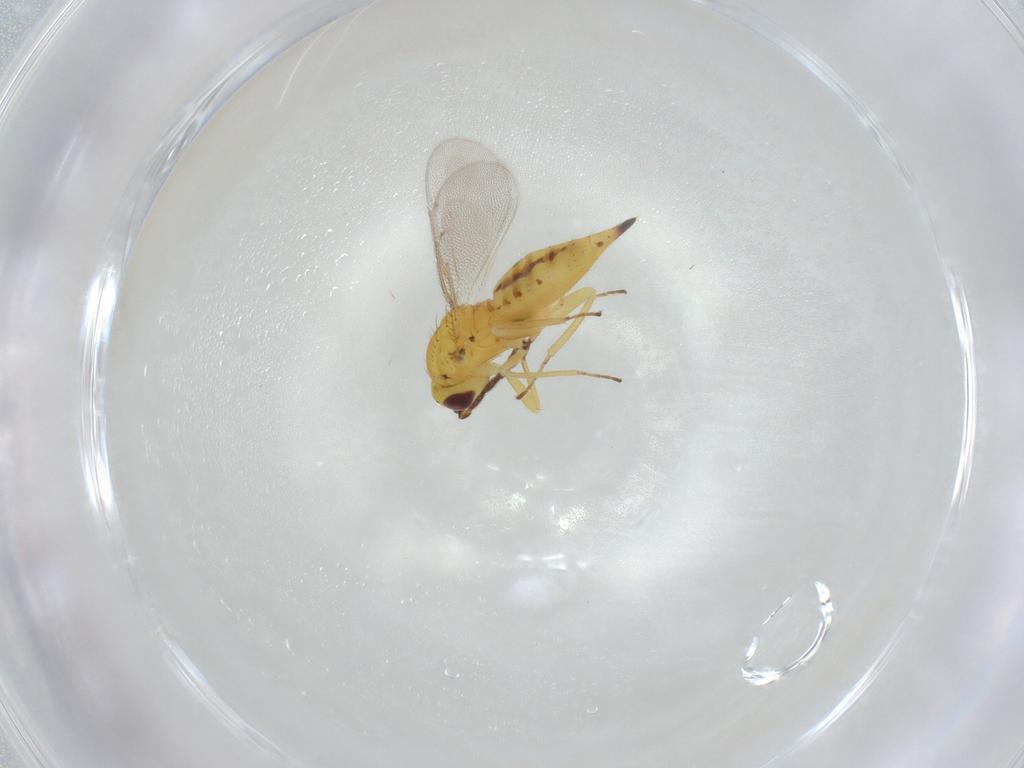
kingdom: Animalia
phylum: Arthropoda
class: Insecta
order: Hymenoptera
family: Eulophidae
